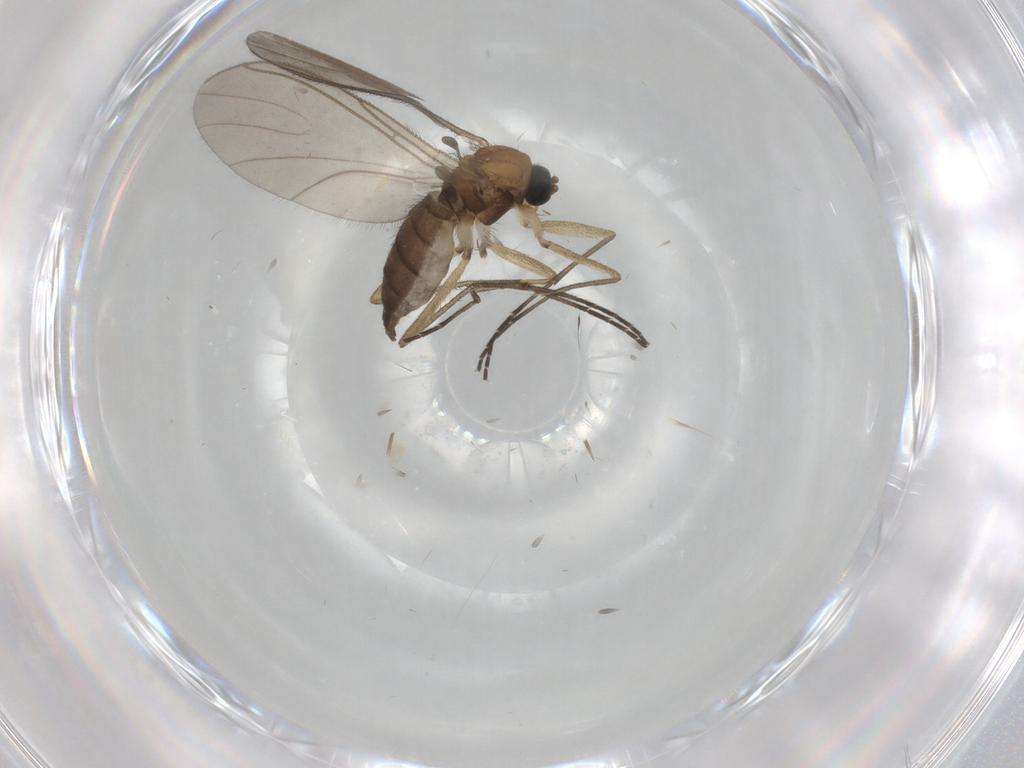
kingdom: Animalia
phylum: Arthropoda
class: Insecta
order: Diptera
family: Sciaridae
